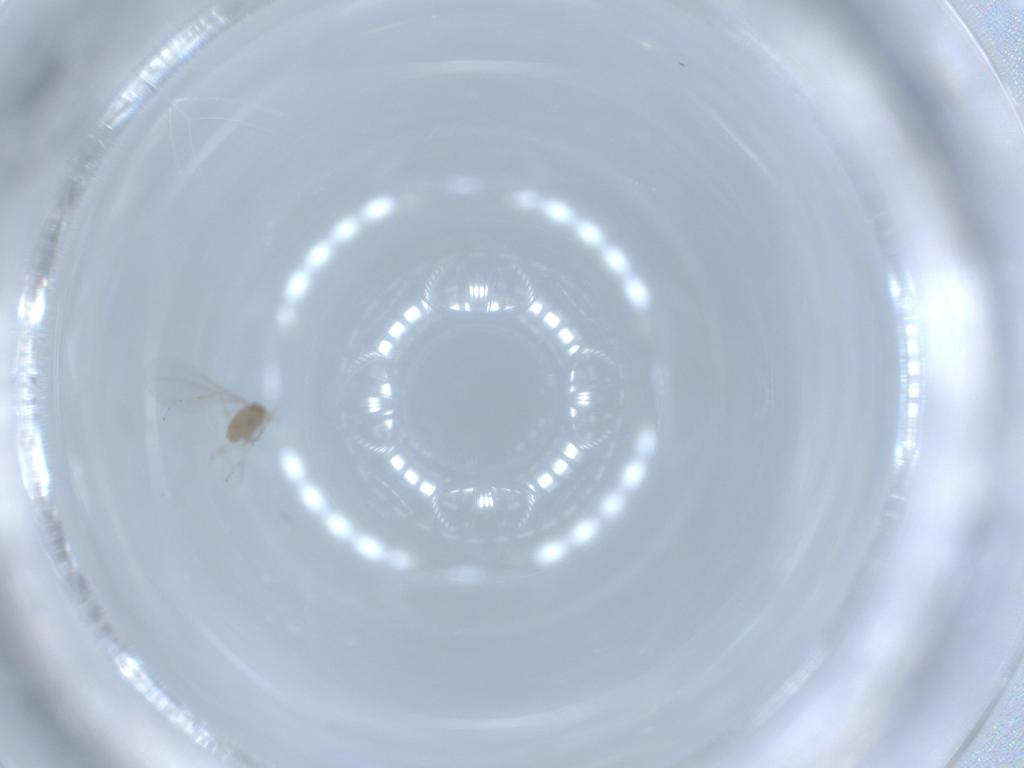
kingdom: Animalia
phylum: Arthropoda
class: Insecta
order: Diptera
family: Cecidomyiidae
